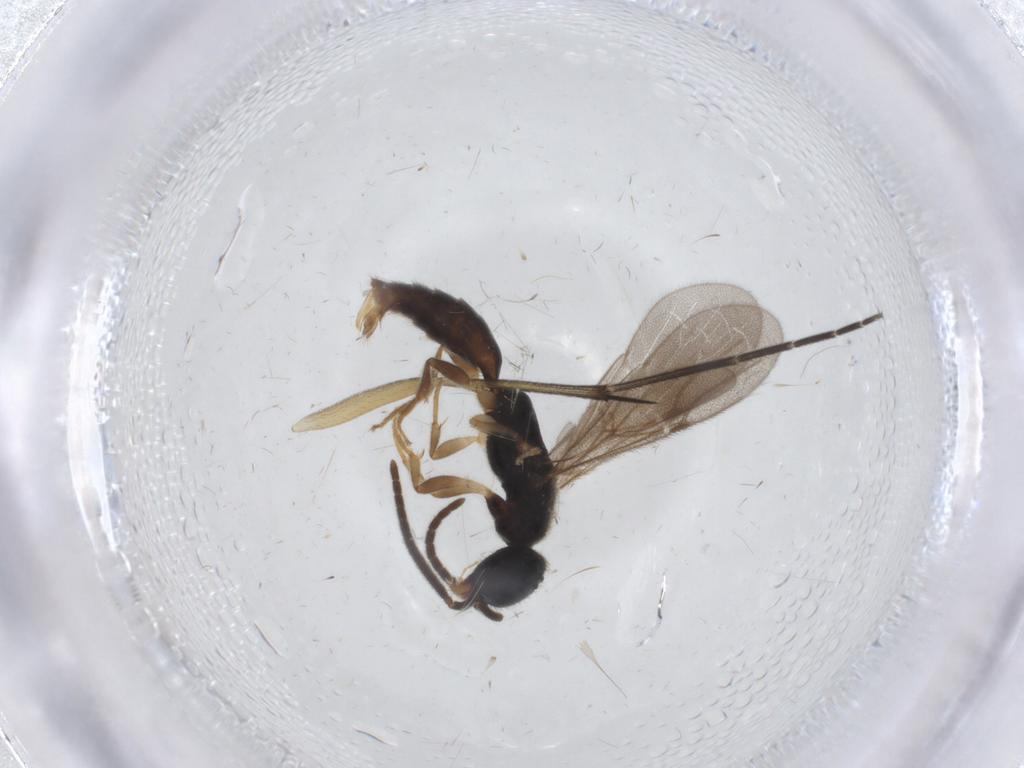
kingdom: Animalia
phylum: Arthropoda
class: Insecta
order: Hymenoptera
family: Bethylidae
